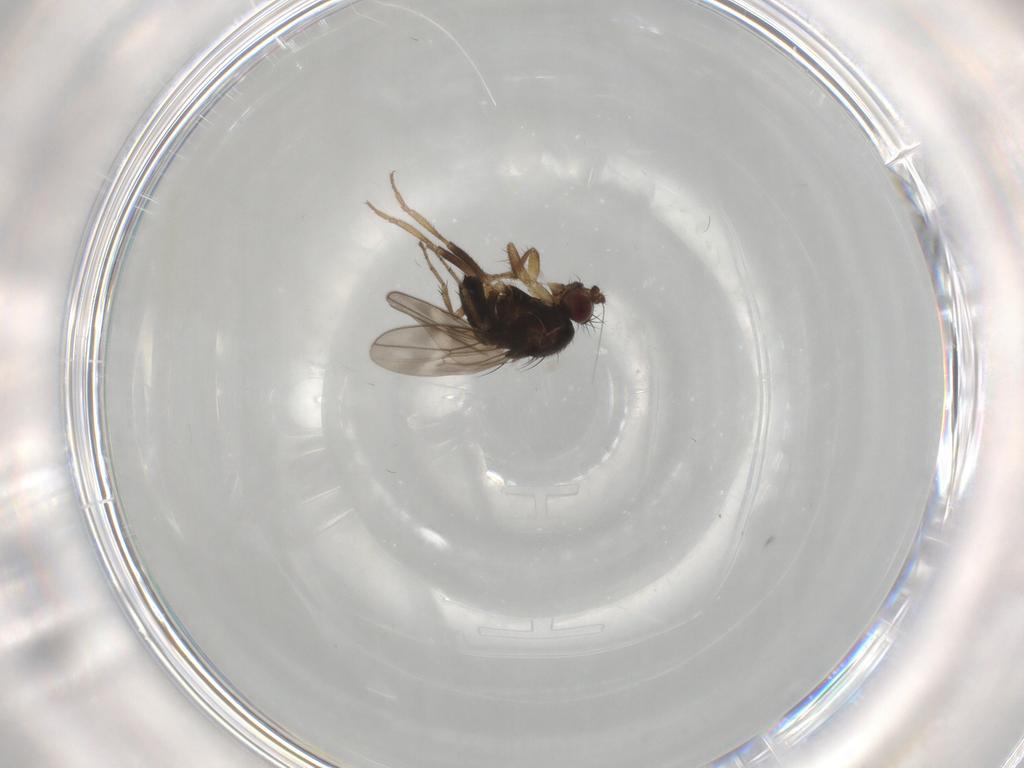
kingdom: Animalia
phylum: Arthropoda
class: Insecta
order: Diptera
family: Sphaeroceridae
